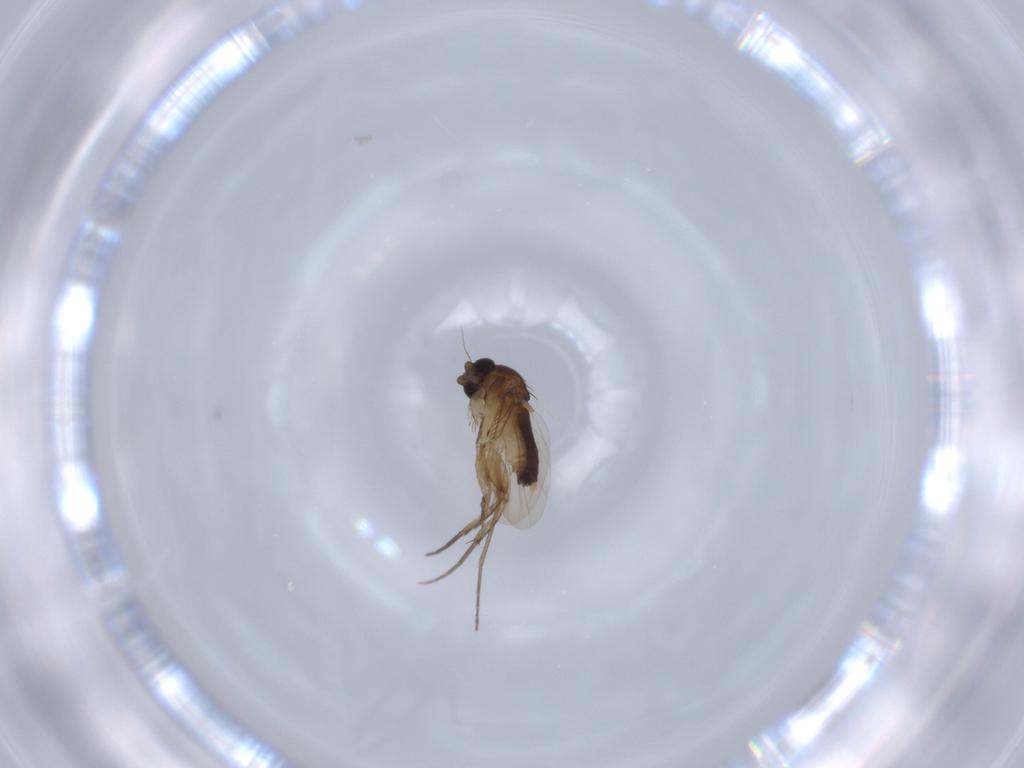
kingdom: Animalia
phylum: Arthropoda
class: Insecta
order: Diptera
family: Phoridae
